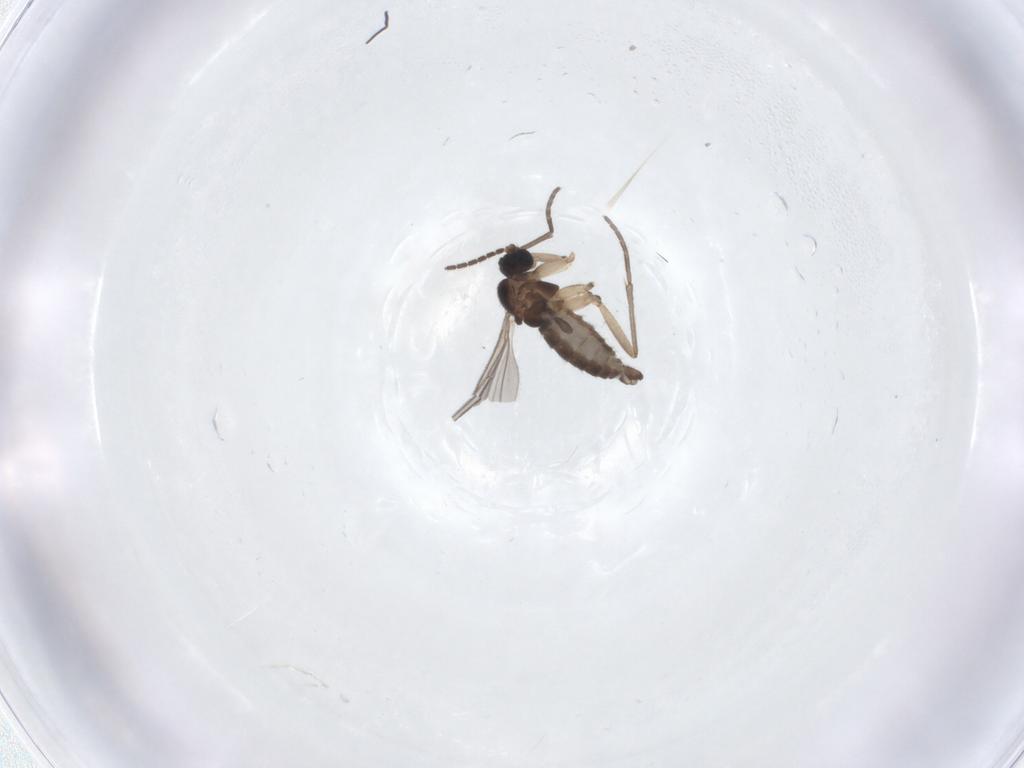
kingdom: Animalia
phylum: Arthropoda
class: Insecta
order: Diptera
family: Sciaridae
